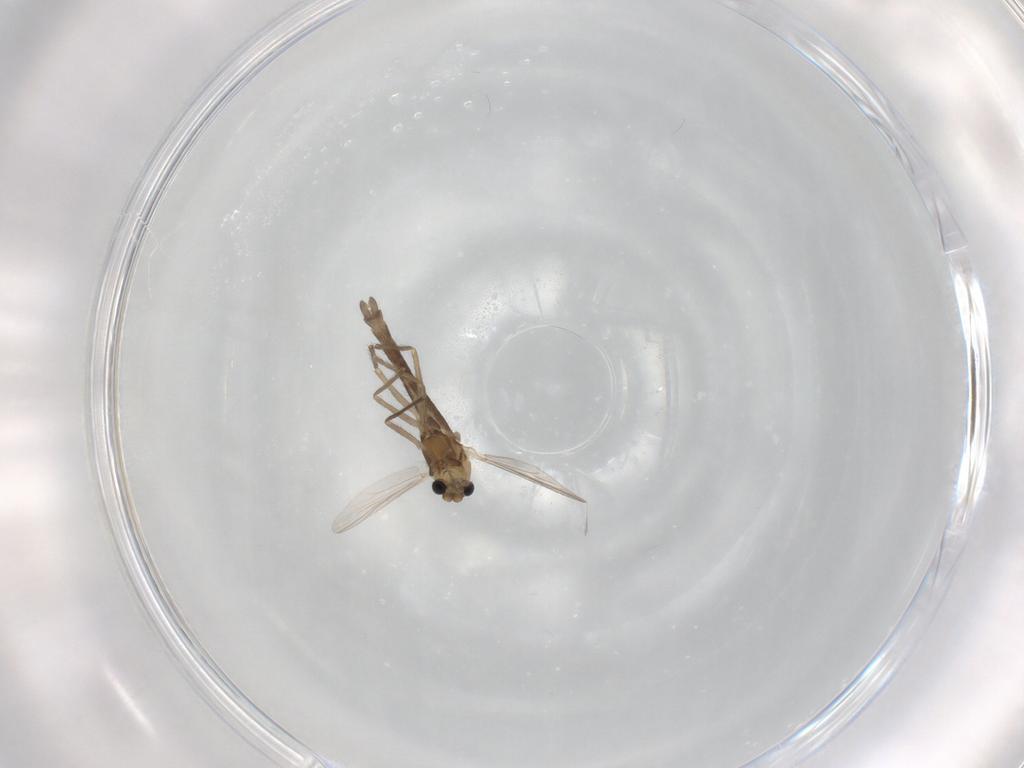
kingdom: Animalia
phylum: Arthropoda
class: Insecta
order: Diptera
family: Chironomidae
